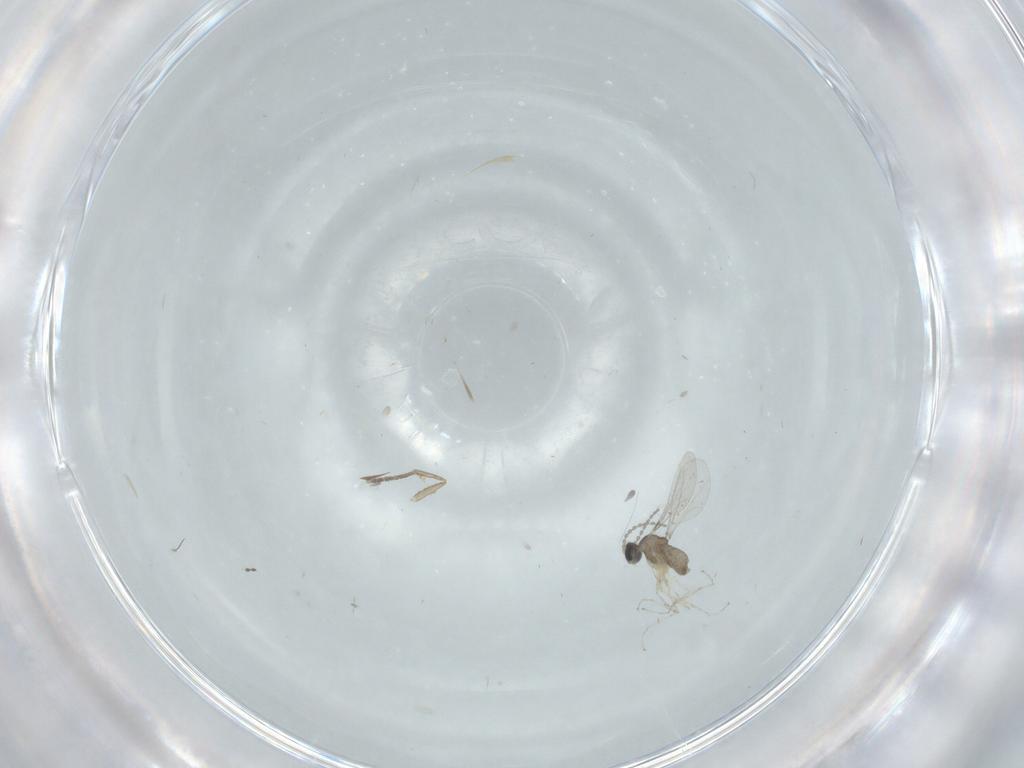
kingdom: Animalia
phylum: Arthropoda
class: Insecta
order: Diptera
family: Cecidomyiidae
